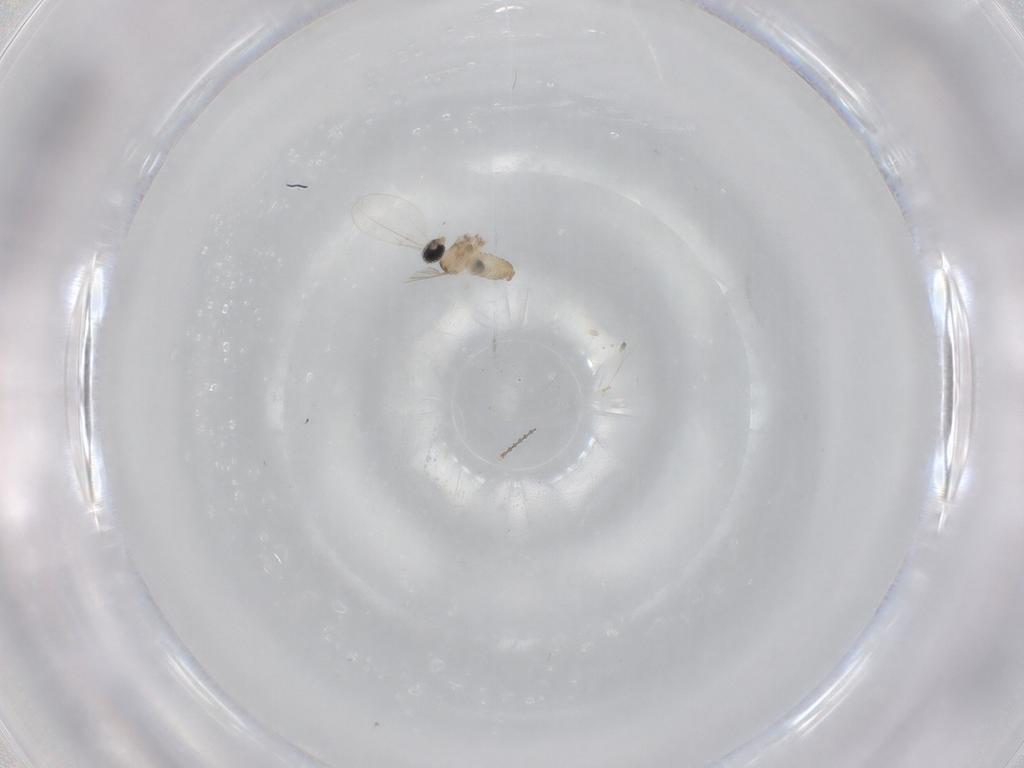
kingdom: Animalia
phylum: Arthropoda
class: Insecta
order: Diptera
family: Cecidomyiidae
